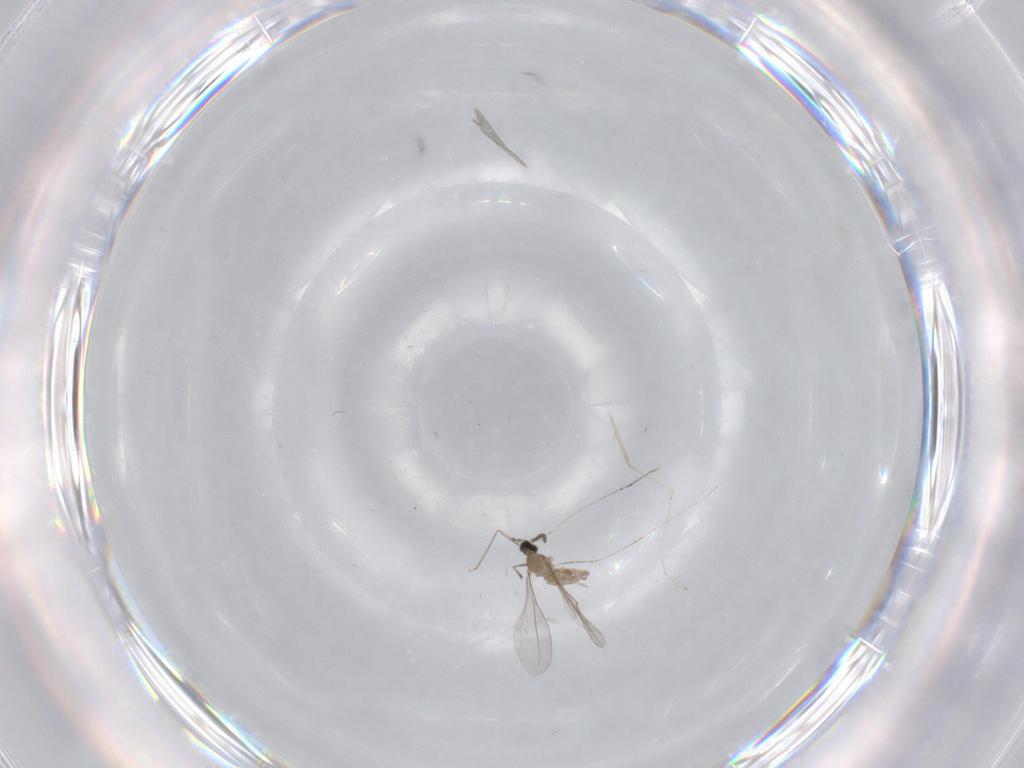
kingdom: Animalia
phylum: Arthropoda
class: Insecta
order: Diptera
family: Cecidomyiidae
